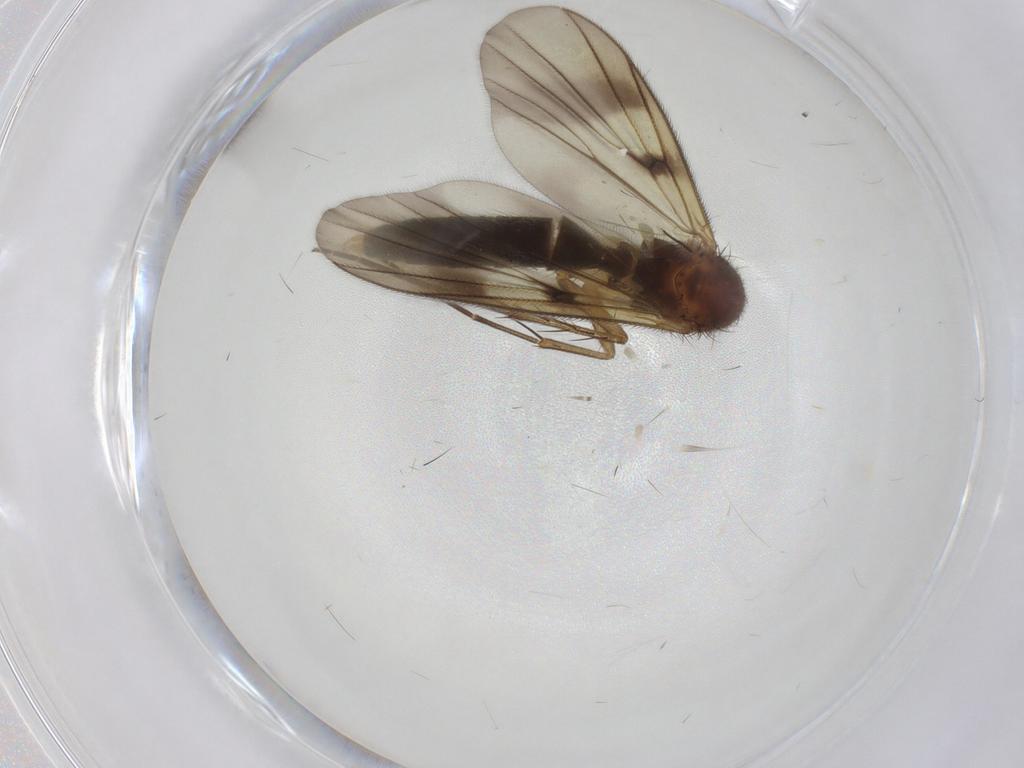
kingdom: Animalia
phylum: Arthropoda
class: Insecta
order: Diptera
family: Mycetophilidae
